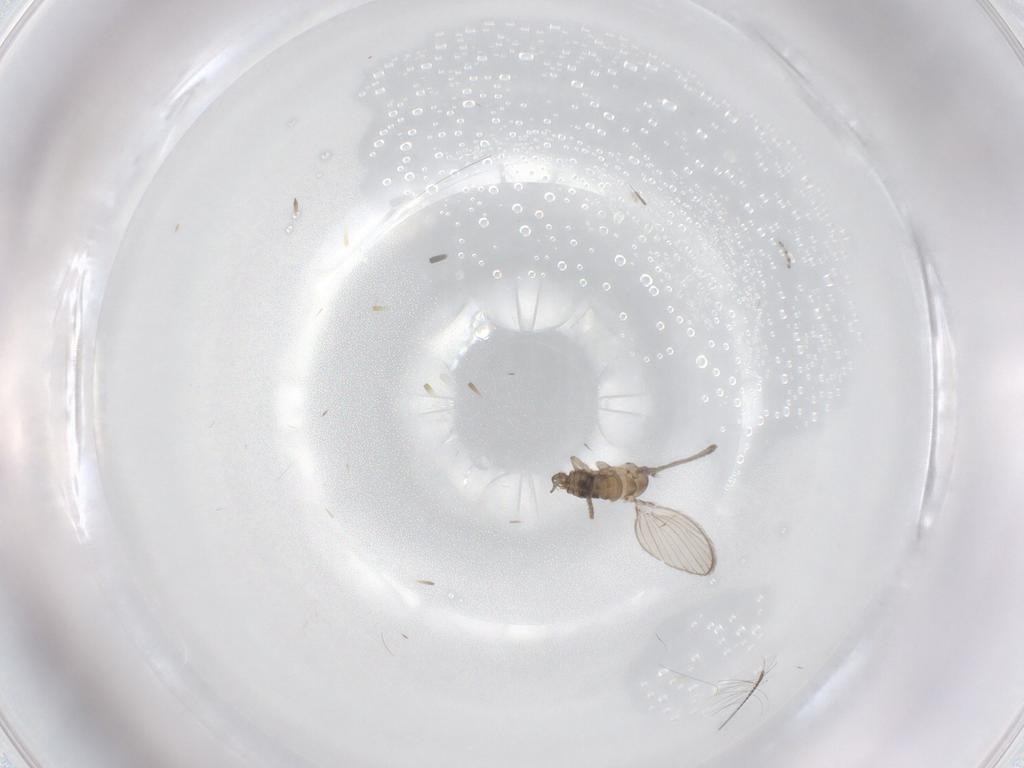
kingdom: Animalia
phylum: Arthropoda
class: Insecta
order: Diptera
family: Psychodidae
